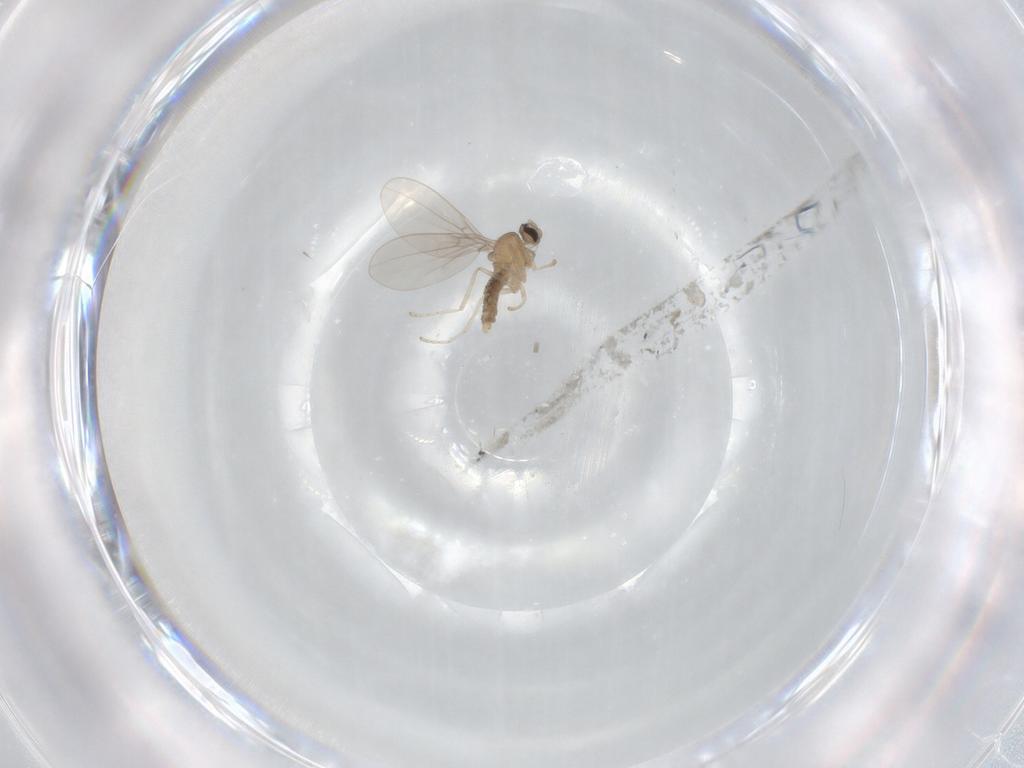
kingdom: Animalia
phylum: Arthropoda
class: Insecta
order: Diptera
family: Cecidomyiidae
